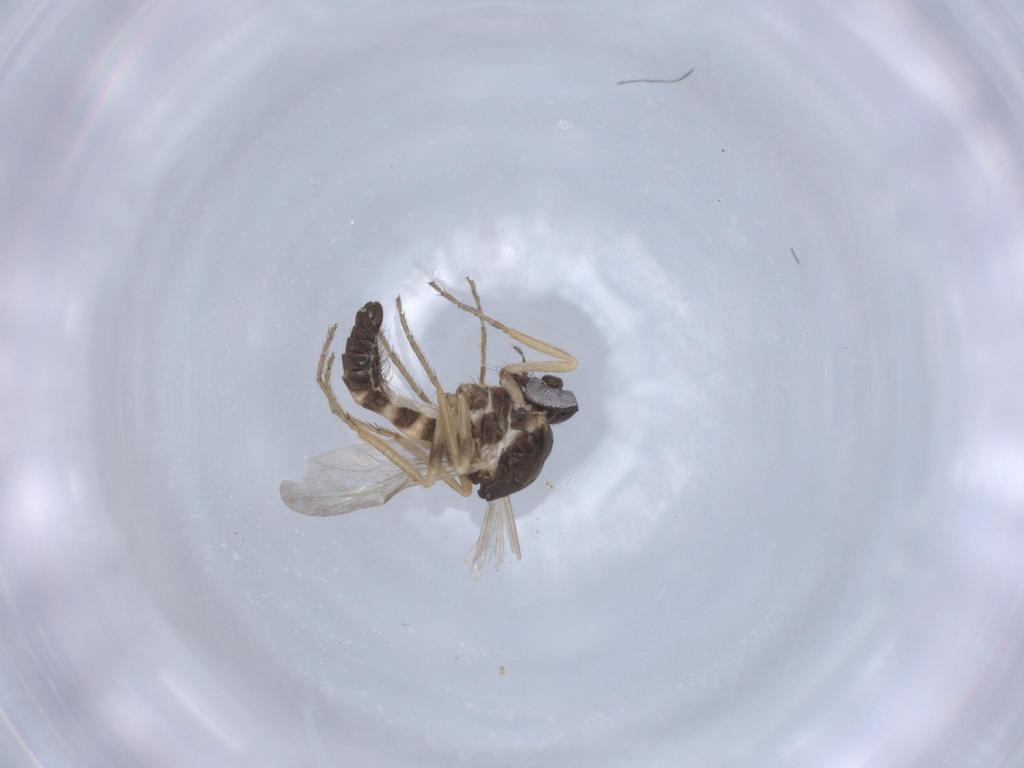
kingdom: Animalia
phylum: Arthropoda
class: Insecta
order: Diptera
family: Ceratopogonidae
